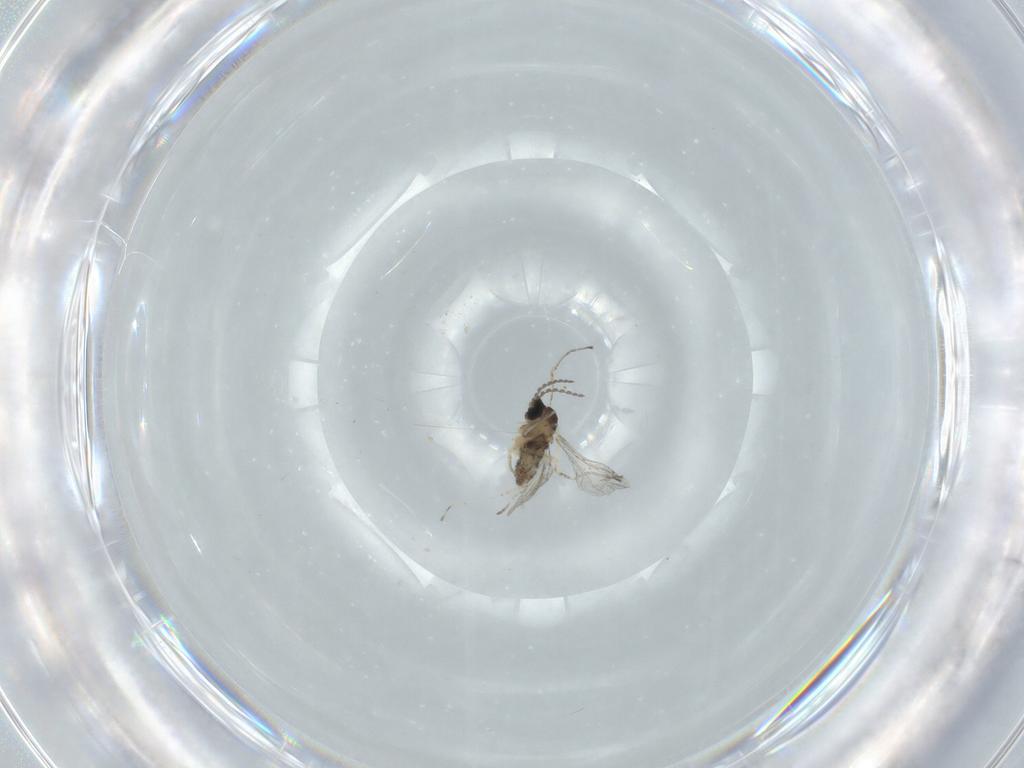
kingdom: Animalia
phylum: Arthropoda
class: Insecta
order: Diptera
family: Cecidomyiidae
